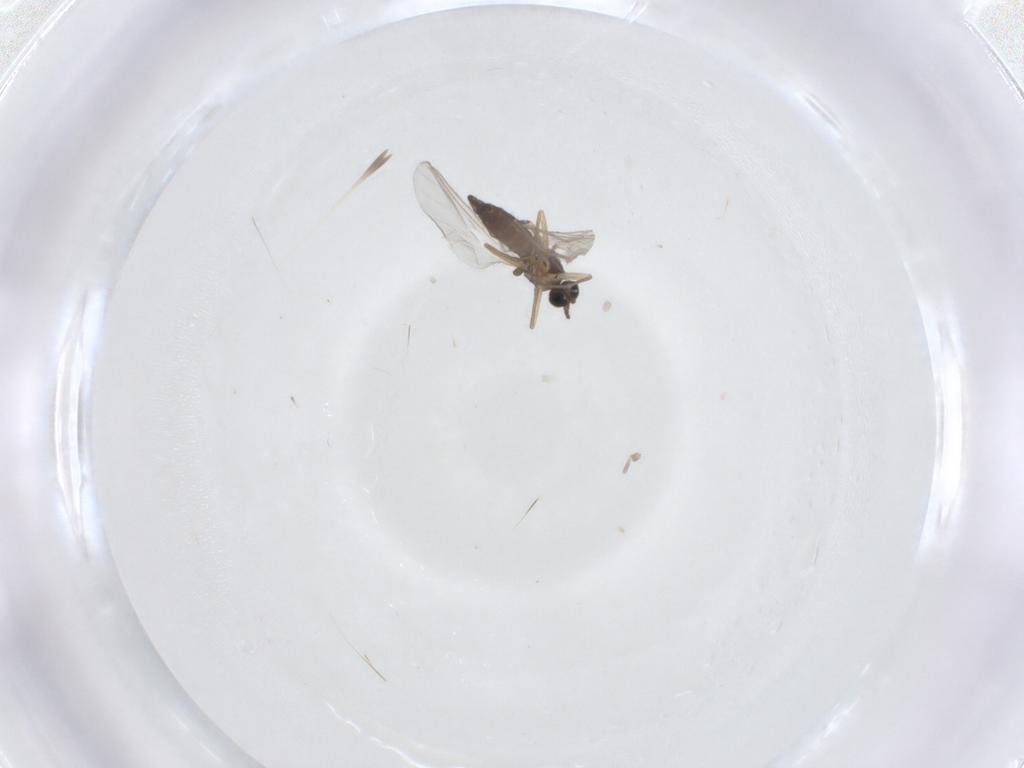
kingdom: Animalia
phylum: Arthropoda
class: Insecta
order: Diptera
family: Sciaridae
